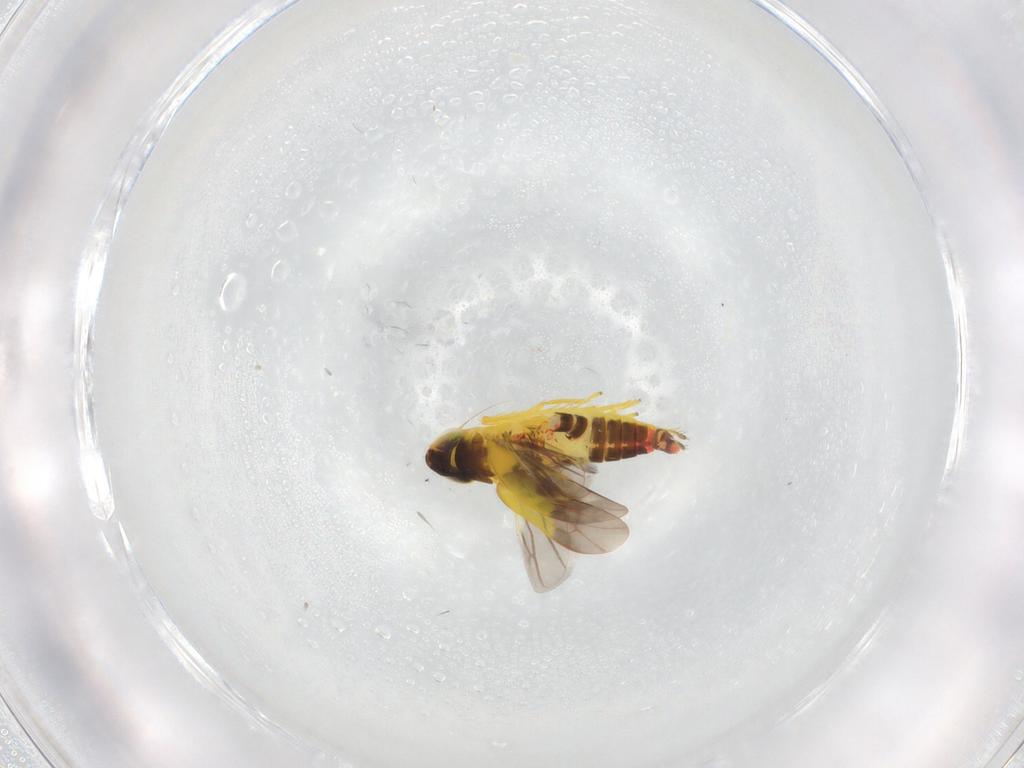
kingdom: Animalia
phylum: Arthropoda
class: Insecta
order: Hemiptera
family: Cicadellidae
